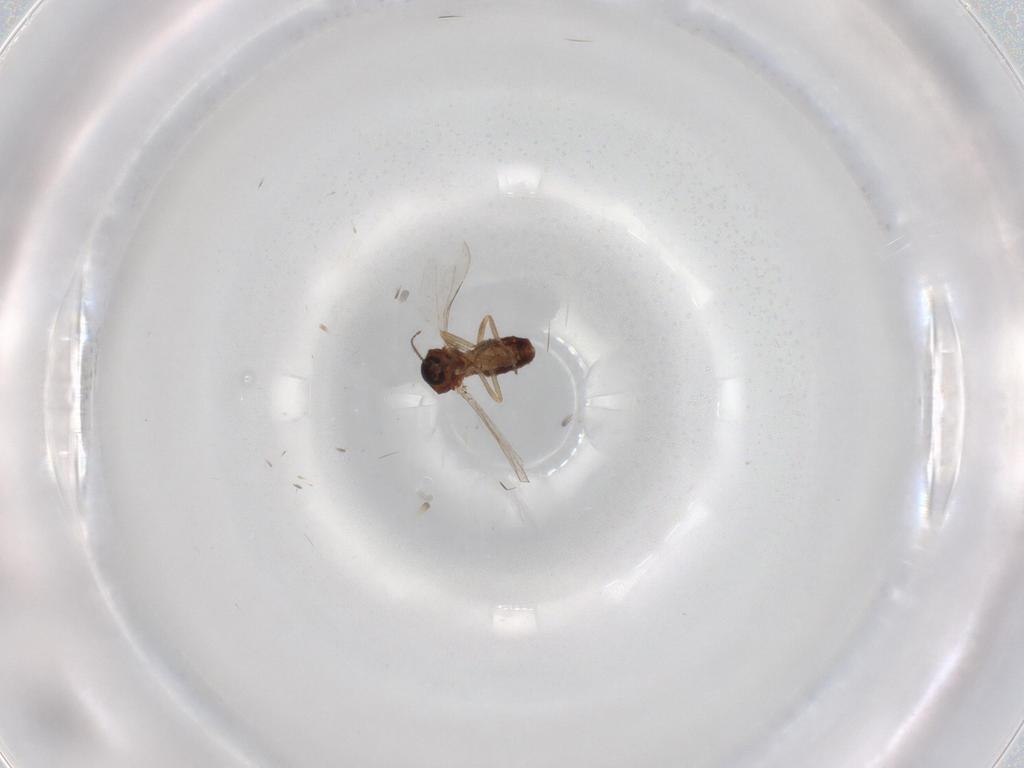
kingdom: Animalia
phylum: Arthropoda
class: Insecta
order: Diptera
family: Ceratopogonidae
